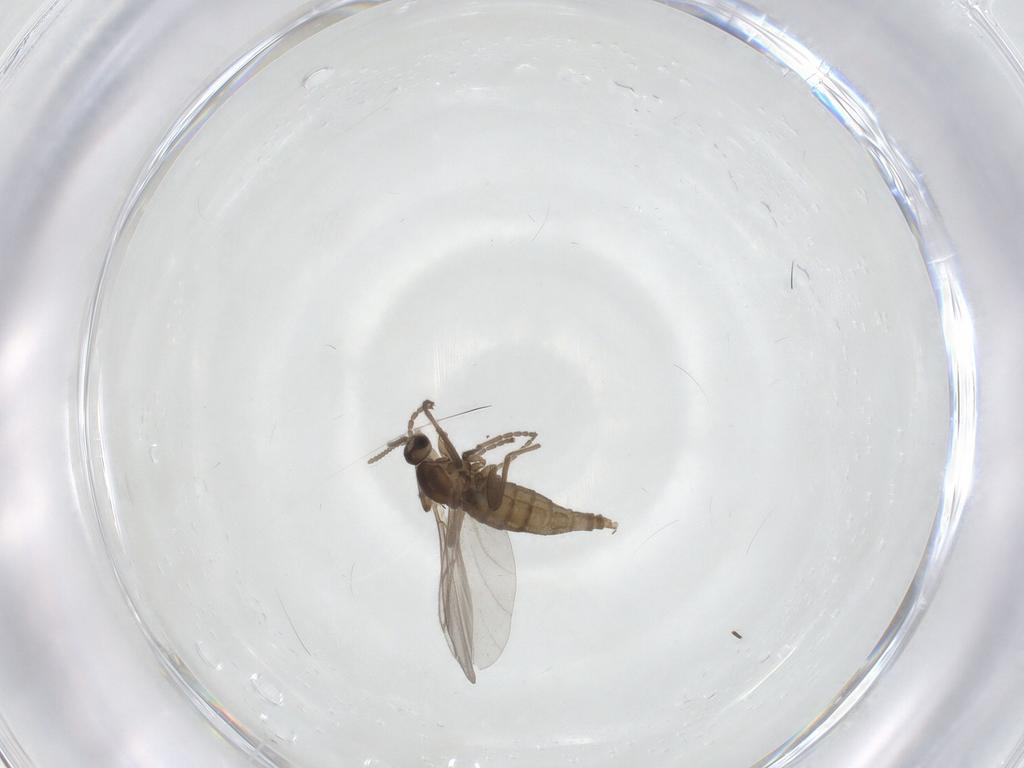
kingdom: Animalia
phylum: Arthropoda
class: Insecta
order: Diptera
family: Cecidomyiidae
